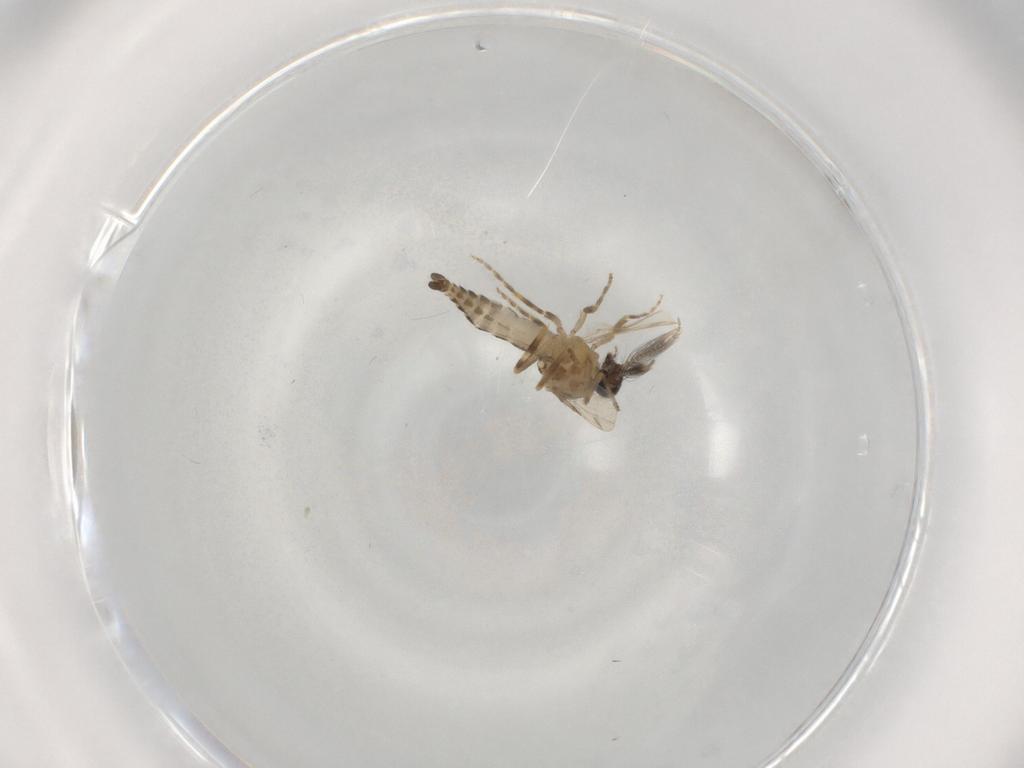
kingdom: Animalia
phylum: Arthropoda
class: Insecta
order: Diptera
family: Ceratopogonidae
